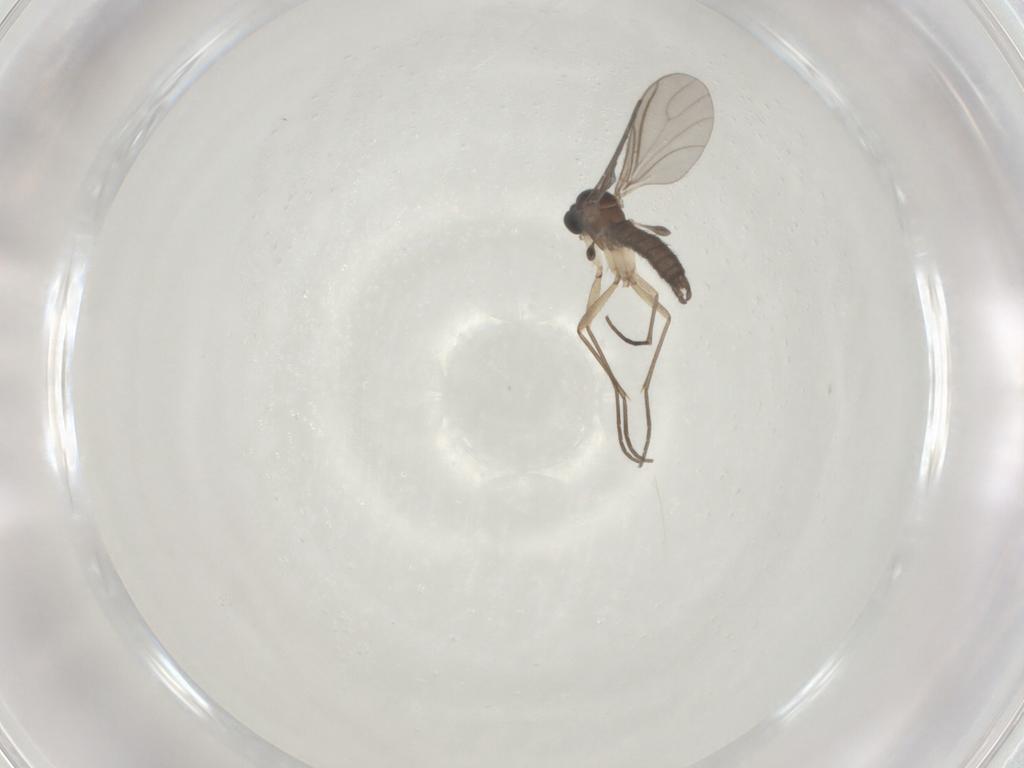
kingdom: Animalia
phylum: Arthropoda
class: Insecta
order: Diptera
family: Sciaridae
